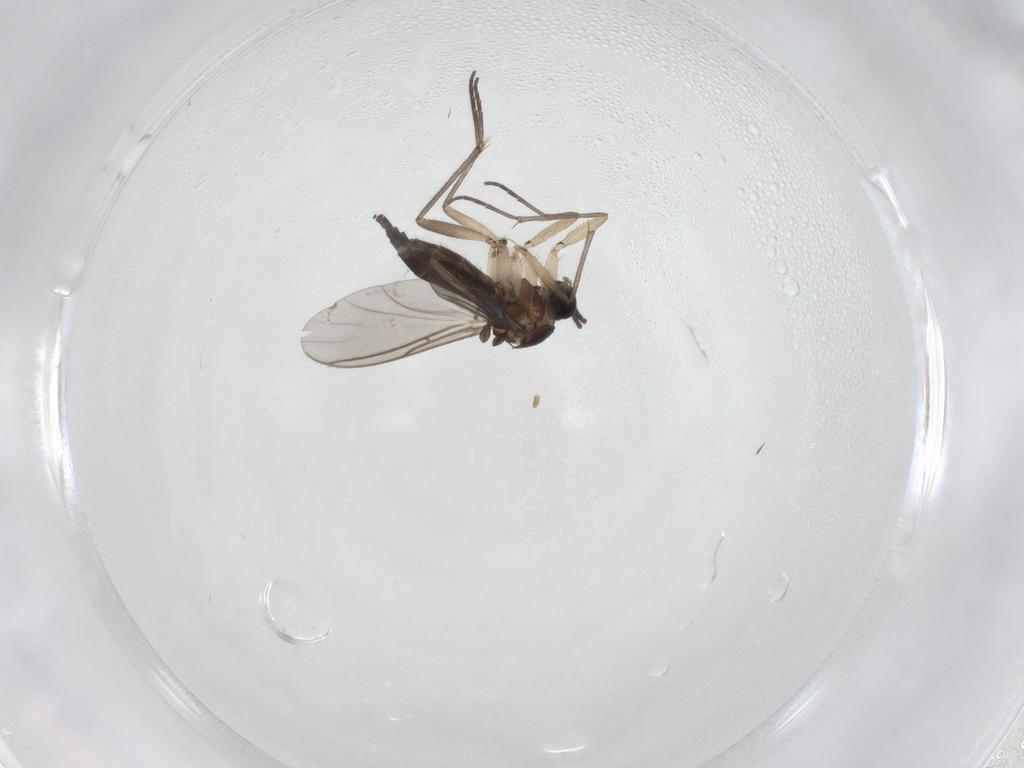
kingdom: Animalia
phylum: Arthropoda
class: Insecta
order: Diptera
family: Sciaridae
